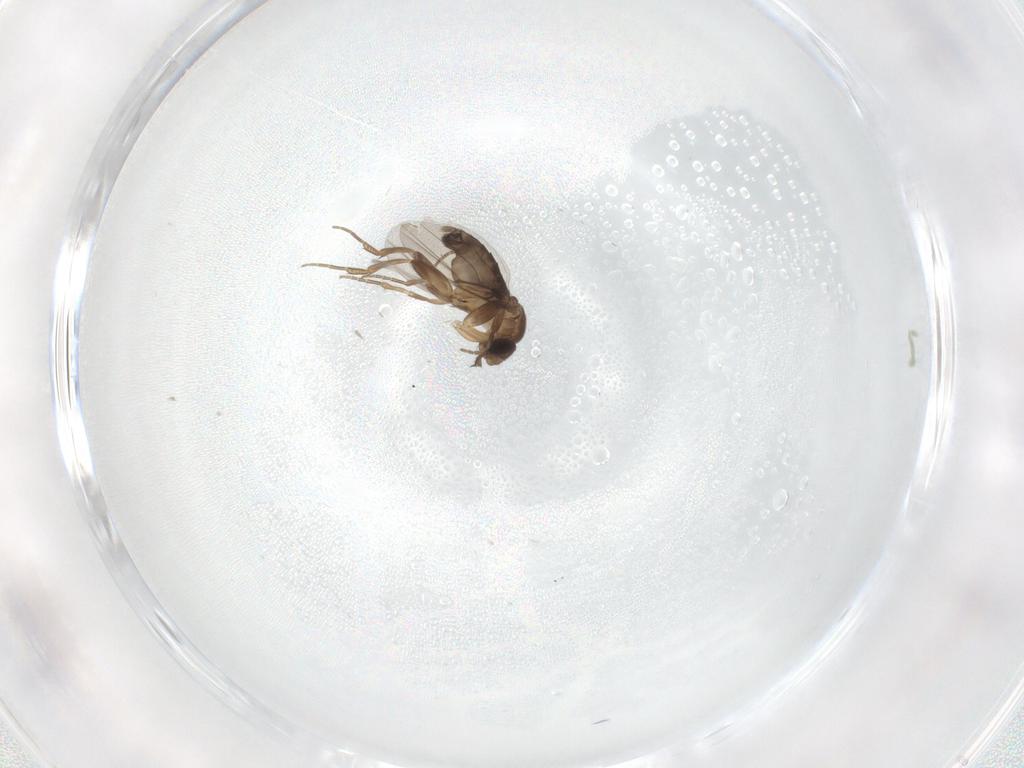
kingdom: Animalia
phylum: Arthropoda
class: Insecta
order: Diptera
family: Phoridae
